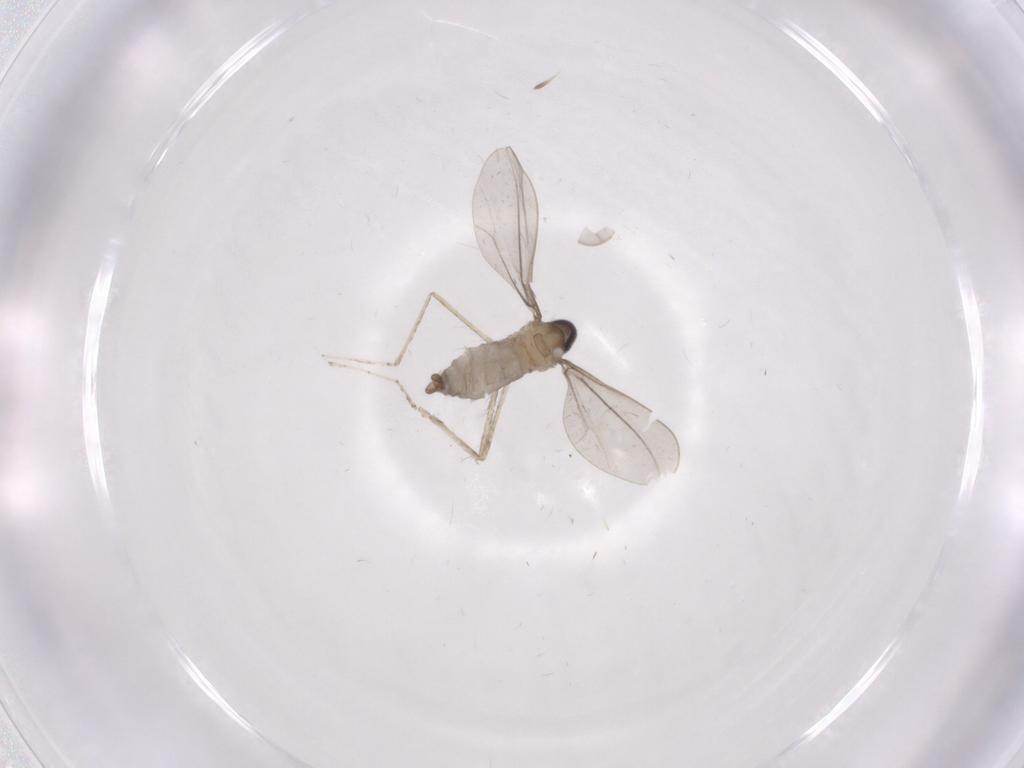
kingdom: Animalia
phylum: Arthropoda
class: Insecta
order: Diptera
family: Cecidomyiidae
